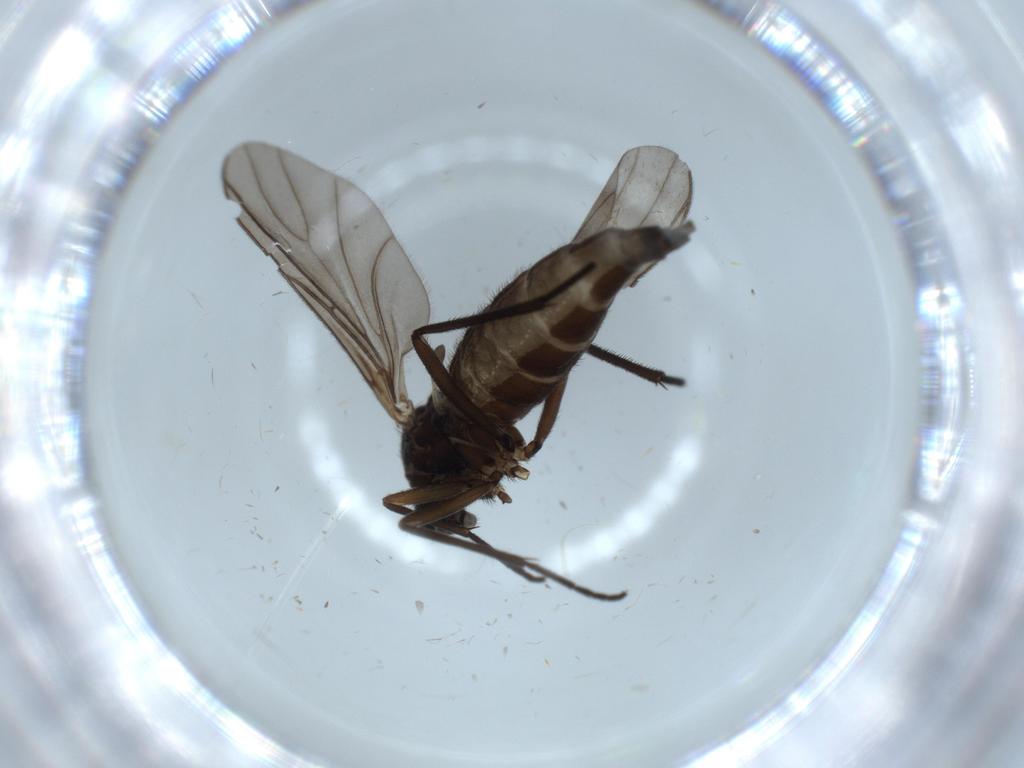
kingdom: Animalia
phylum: Arthropoda
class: Insecta
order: Diptera
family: Sciaridae
